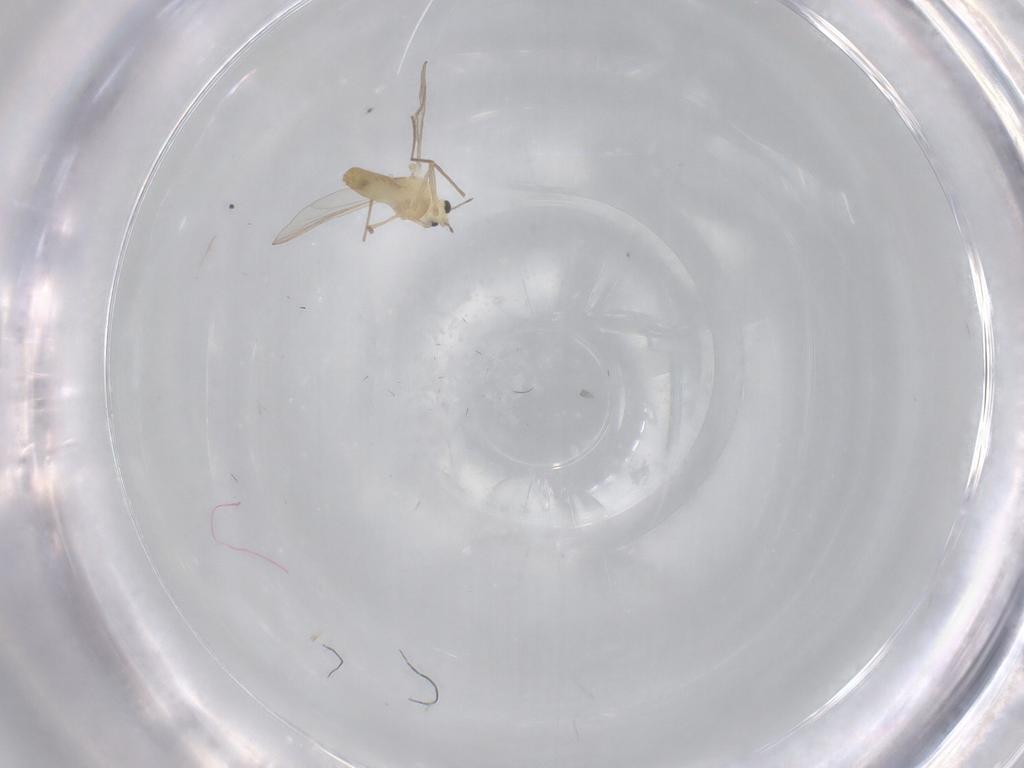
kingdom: Animalia
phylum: Arthropoda
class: Insecta
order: Diptera
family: Chironomidae
